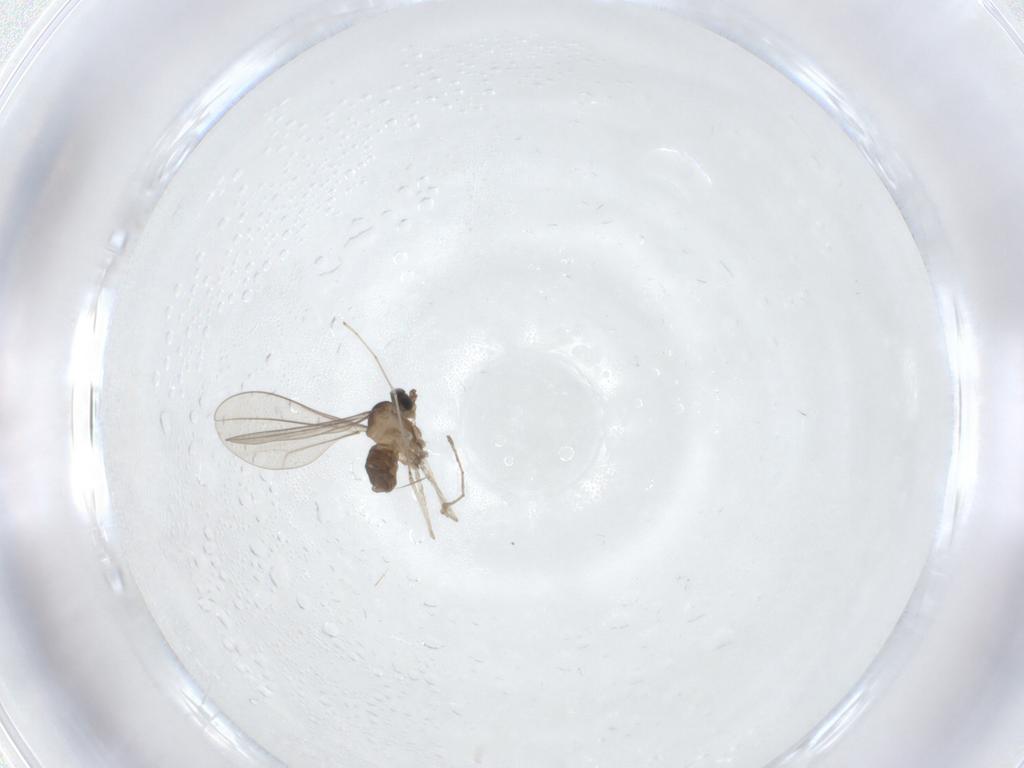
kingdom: Animalia
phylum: Arthropoda
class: Insecta
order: Diptera
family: Cecidomyiidae
